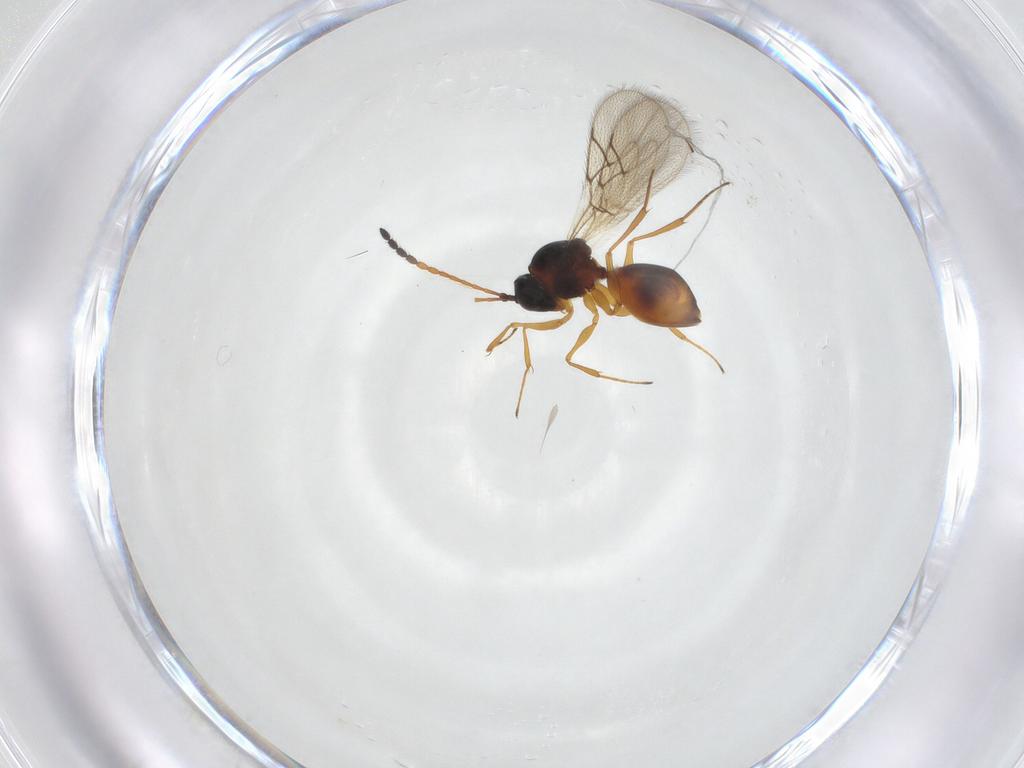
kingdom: Animalia
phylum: Arthropoda
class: Insecta
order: Hymenoptera
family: Figitidae
